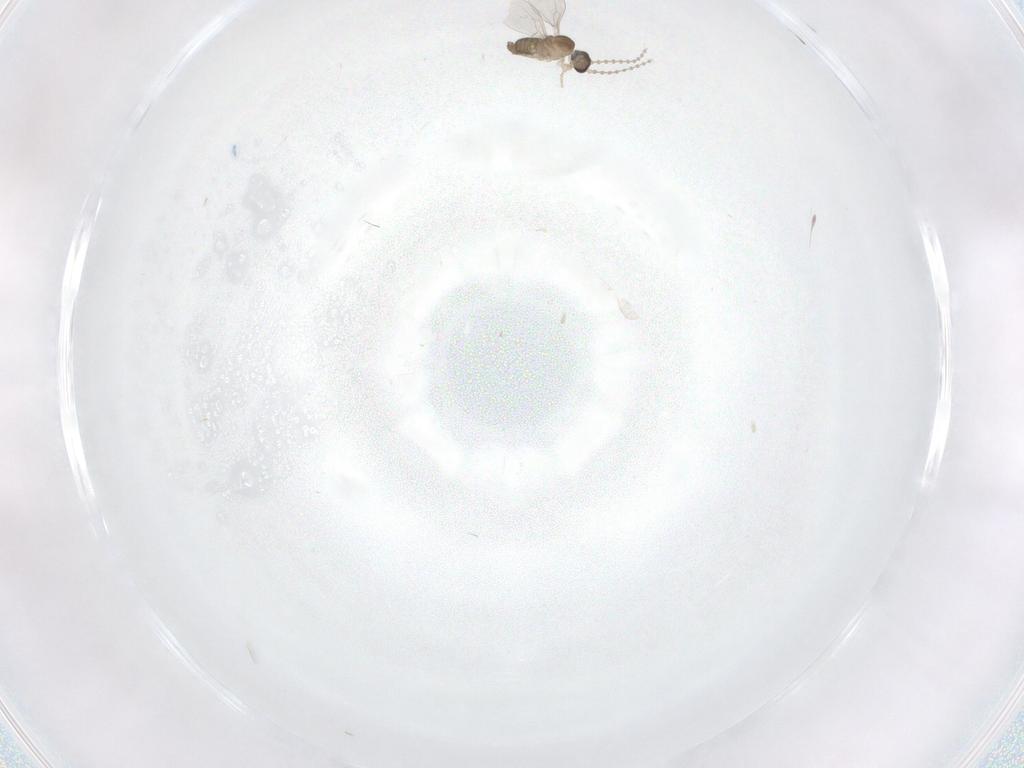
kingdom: Animalia
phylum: Arthropoda
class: Insecta
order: Diptera
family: Cecidomyiidae
